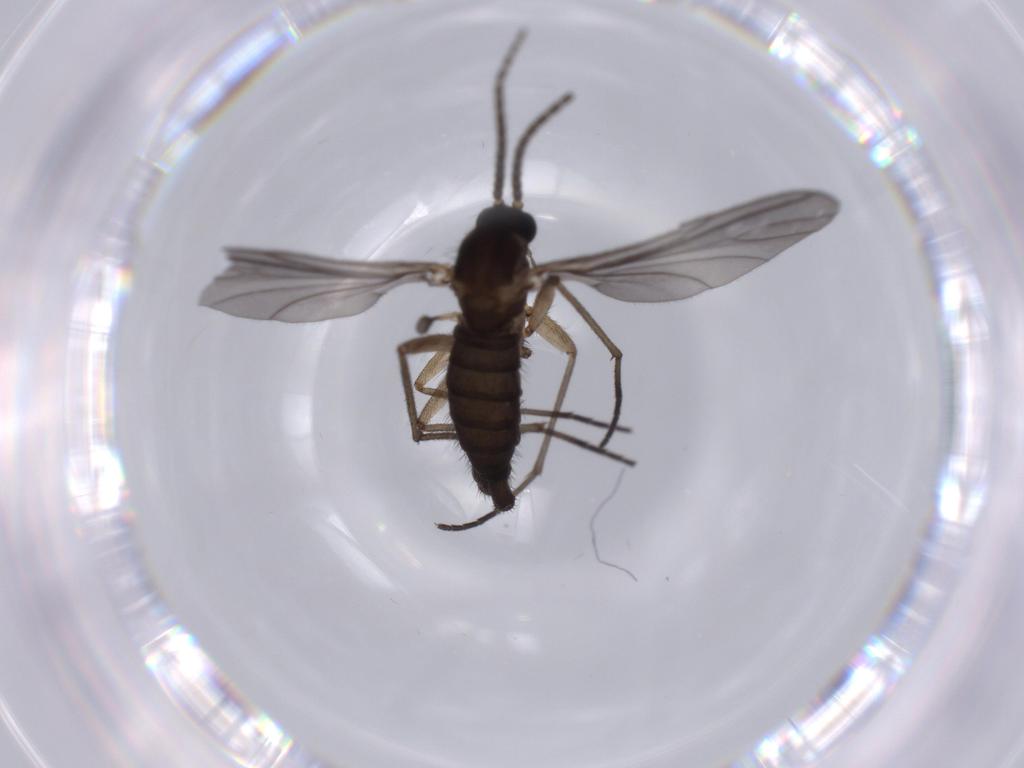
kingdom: Animalia
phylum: Arthropoda
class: Insecta
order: Diptera
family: Sciaridae
